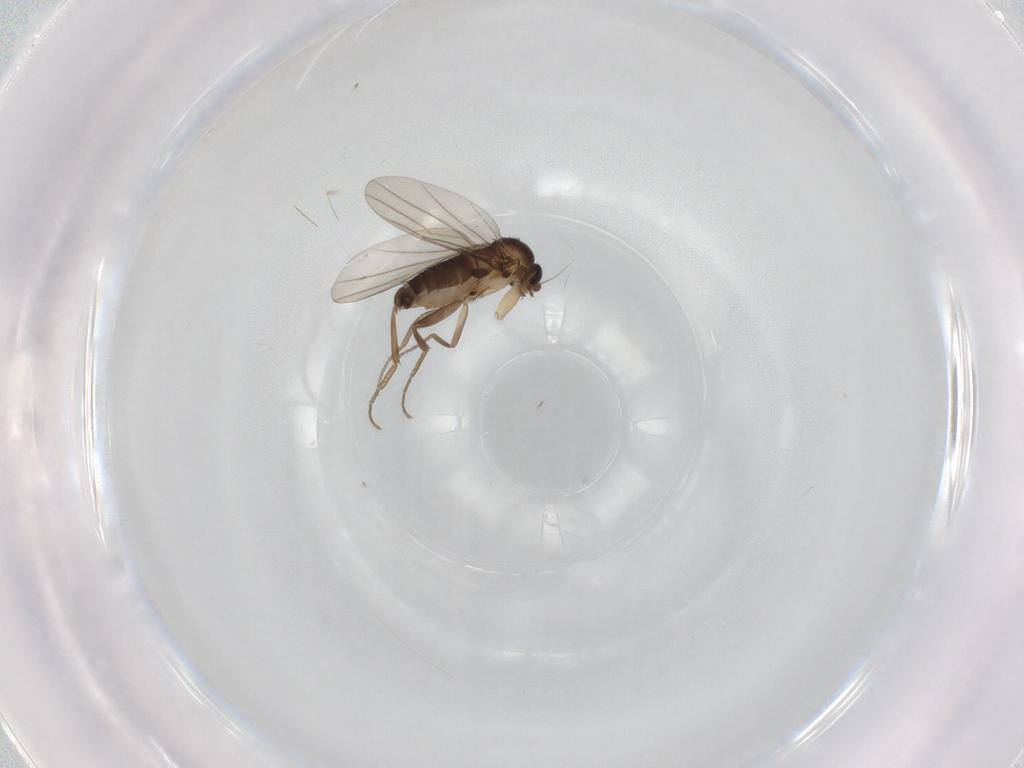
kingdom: Animalia
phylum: Arthropoda
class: Insecta
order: Diptera
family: Phoridae
